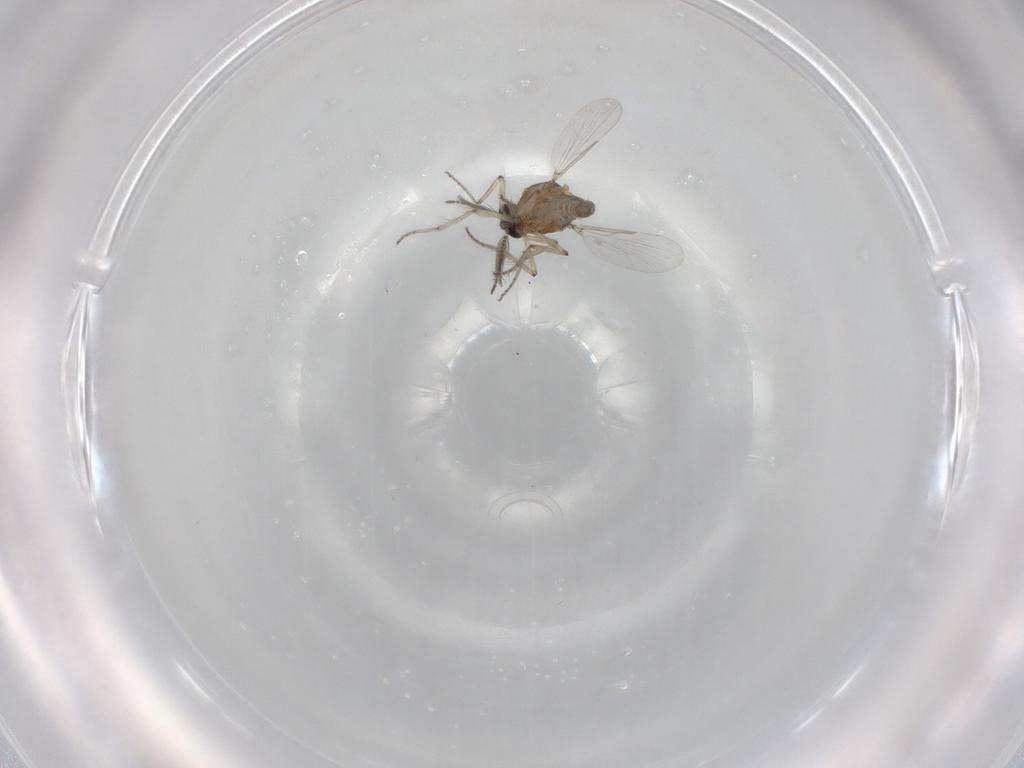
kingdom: Animalia
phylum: Arthropoda
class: Insecta
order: Diptera
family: Ceratopogonidae
